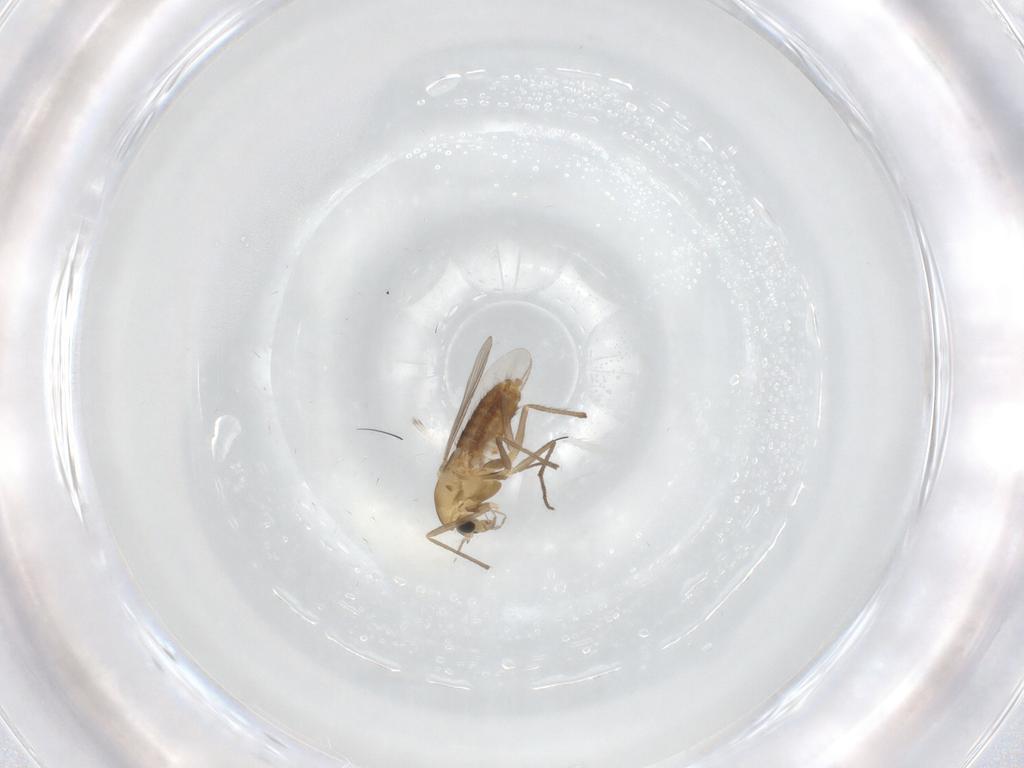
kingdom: Animalia
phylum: Arthropoda
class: Insecta
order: Diptera
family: Chironomidae
